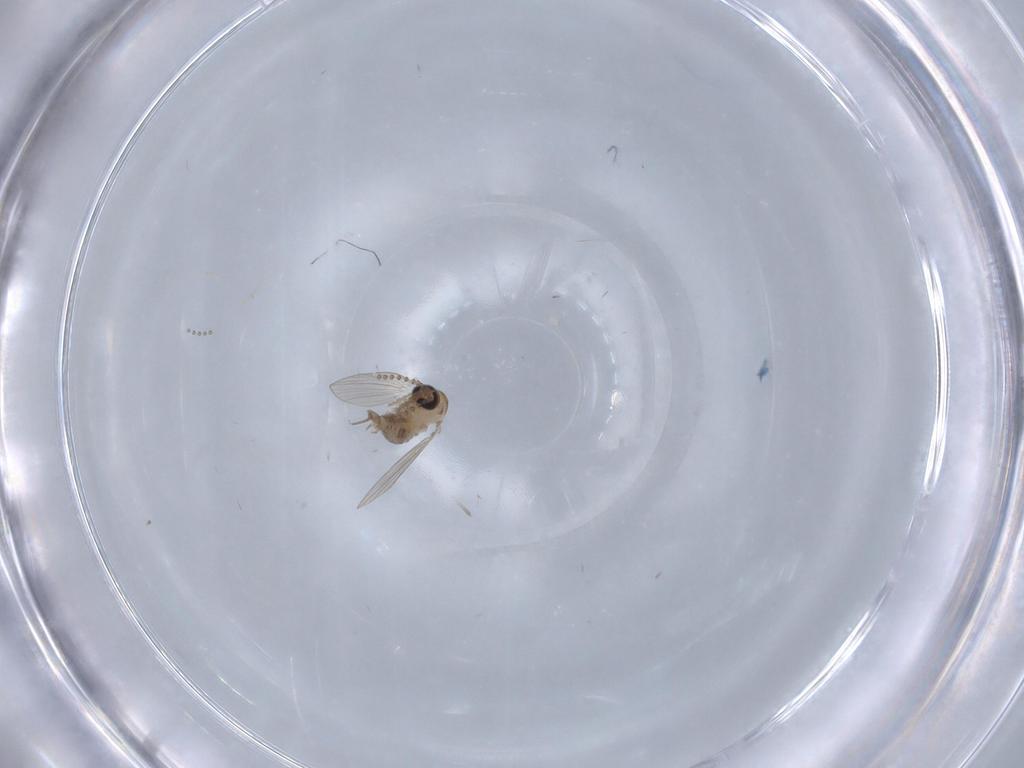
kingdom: Animalia
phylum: Arthropoda
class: Insecta
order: Diptera
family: Psychodidae
